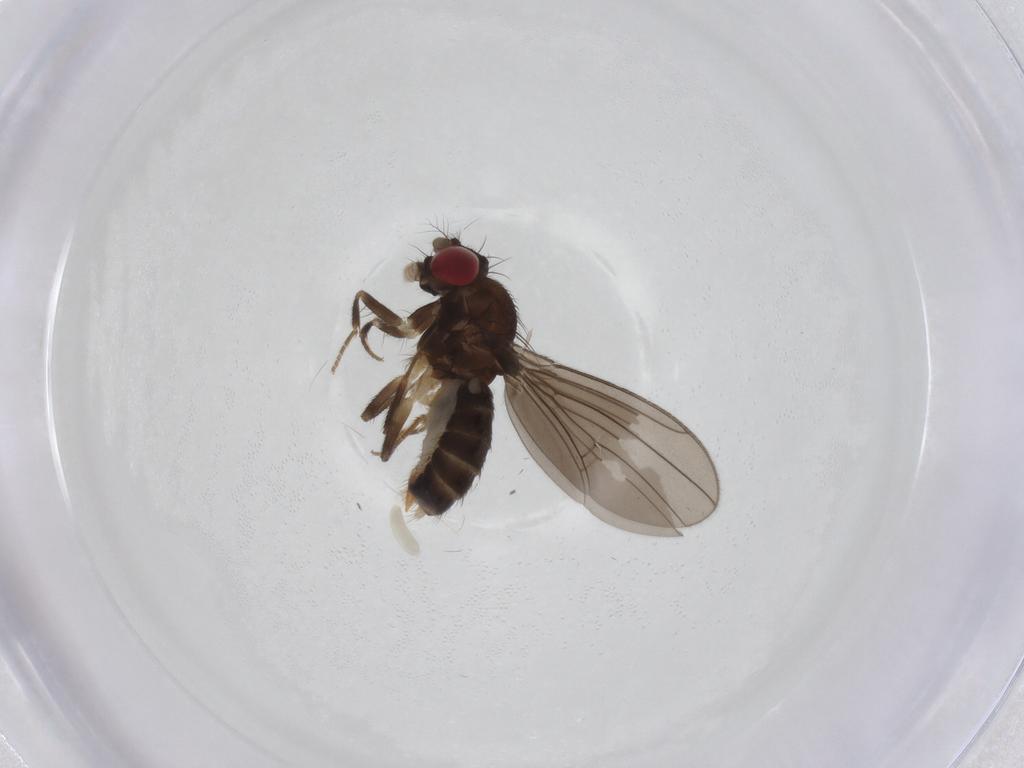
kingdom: Animalia
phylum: Arthropoda
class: Insecta
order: Diptera
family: Drosophilidae
